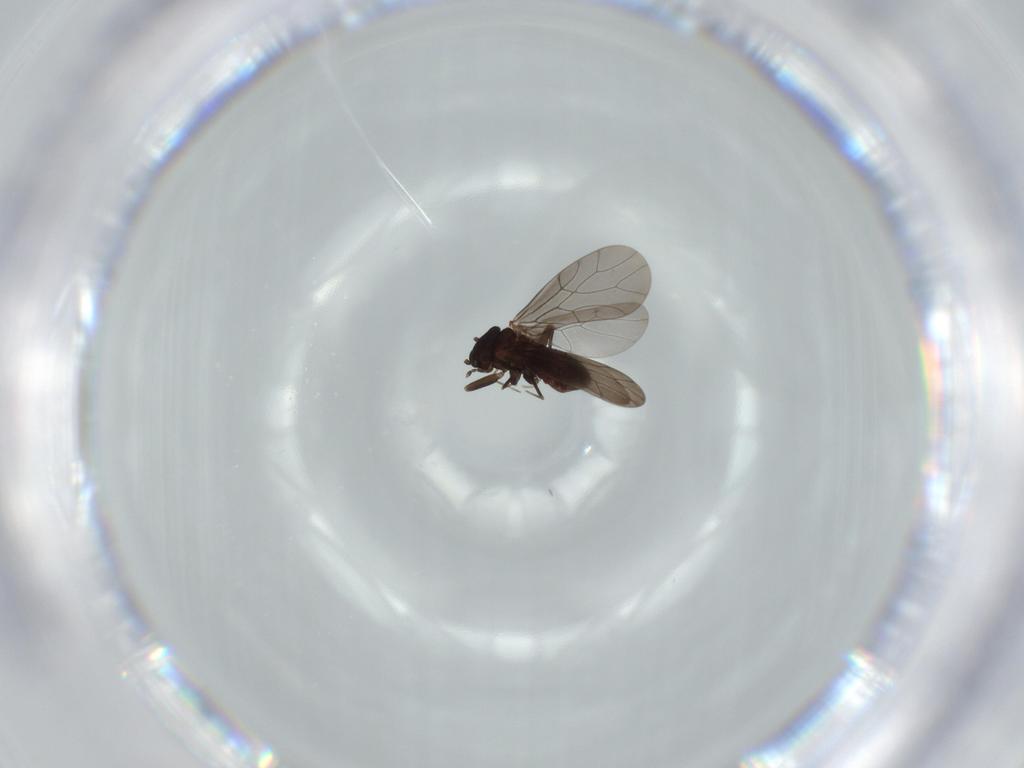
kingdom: Animalia
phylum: Arthropoda
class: Insecta
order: Psocodea
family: Lepidopsocidae
